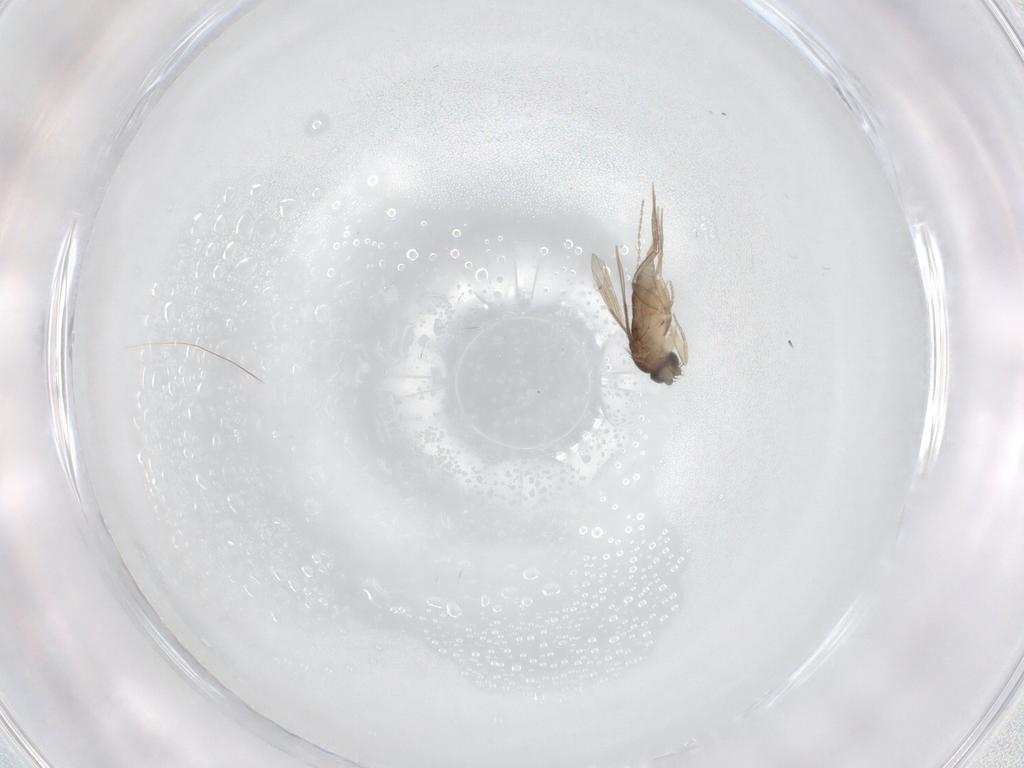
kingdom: Animalia
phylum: Arthropoda
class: Insecta
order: Diptera
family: Phoridae
